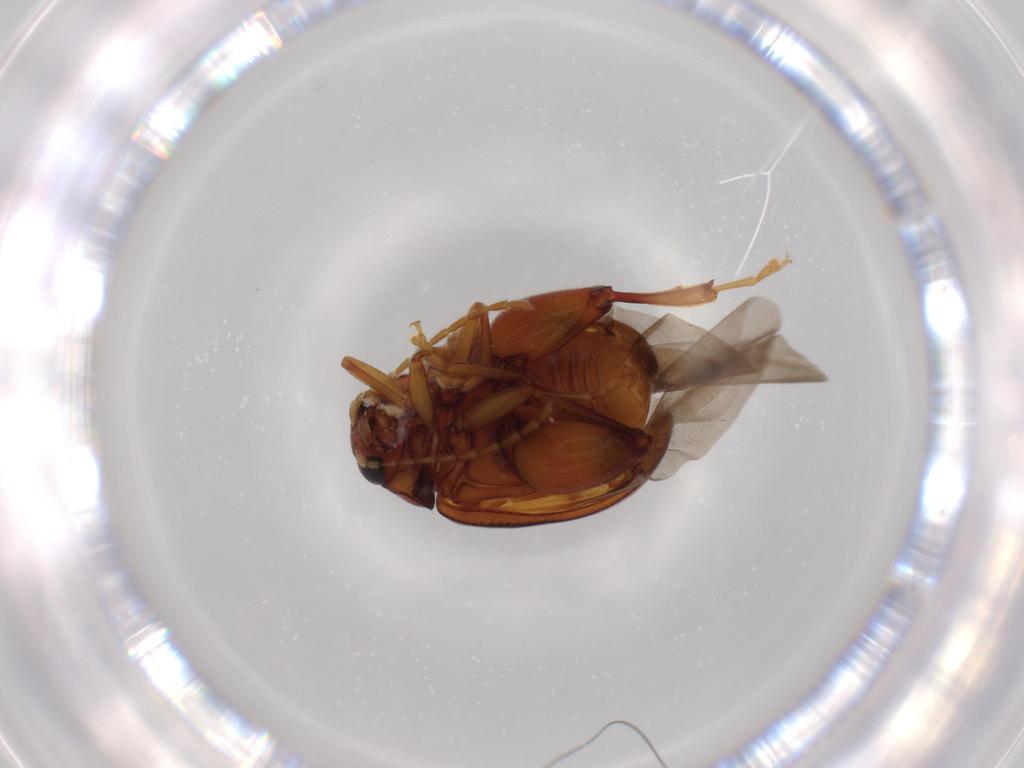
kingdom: Animalia
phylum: Arthropoda
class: Insecta
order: Coleoptera
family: Chrysomelidae
